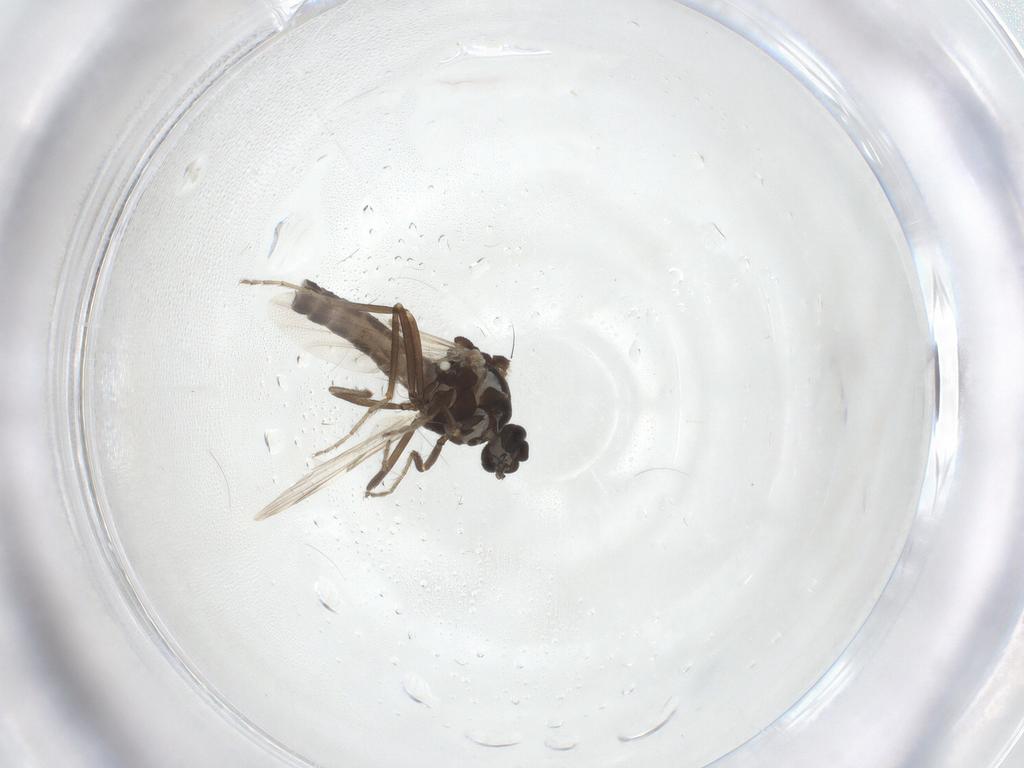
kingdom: Animalia
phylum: Arthropoda
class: Insecta
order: Diptera
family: Ceratopogonidae
